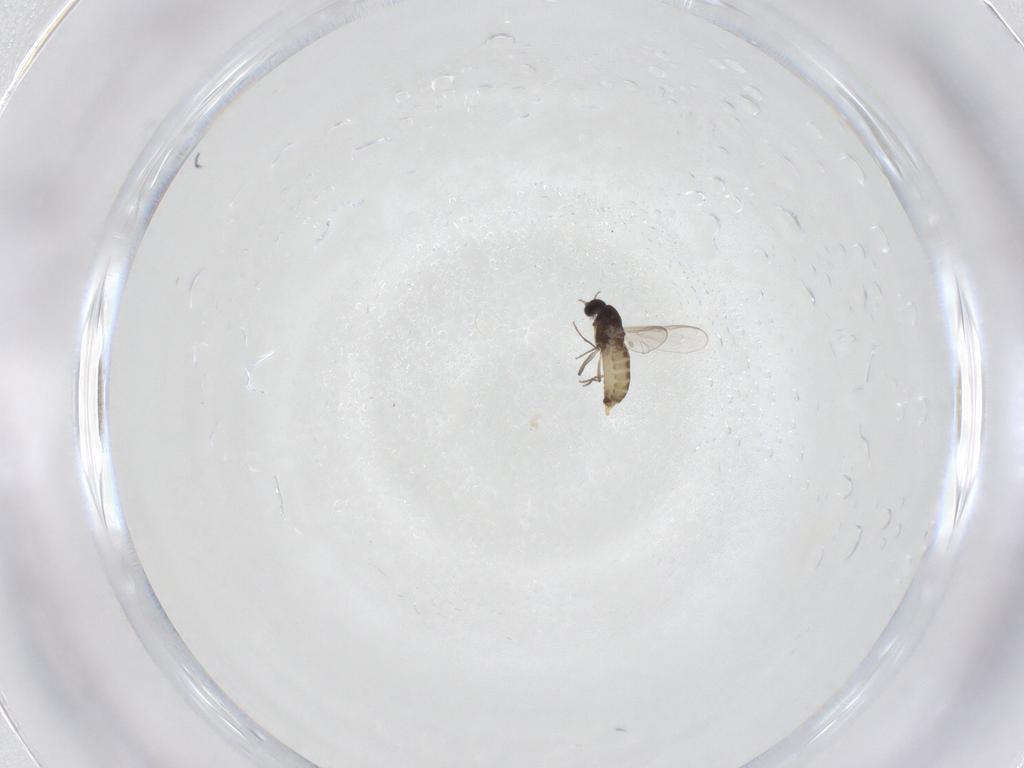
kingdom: Animalia
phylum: Arthropoda
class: Insecta
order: Diptera
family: Chironomidae
